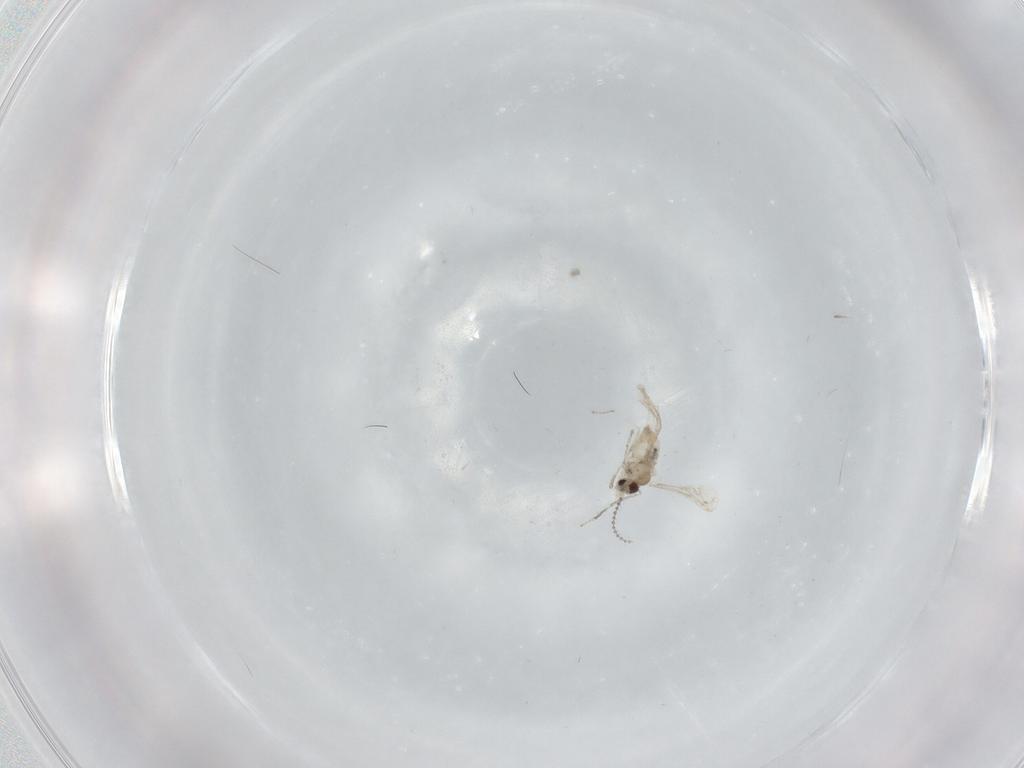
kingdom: Animalia
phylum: Arthropoda
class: Insecta
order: Diptera
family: Cecidomyiidae
